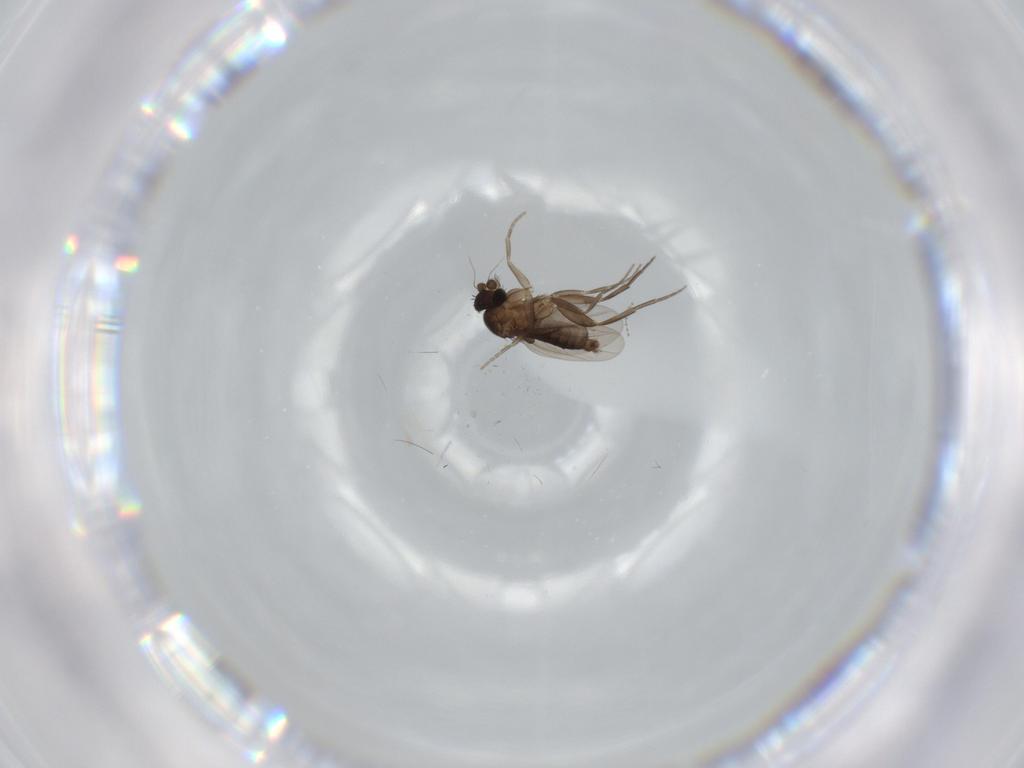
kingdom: Animalia
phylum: Arthropoda
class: Insecta
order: Diptera
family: Phoridae
